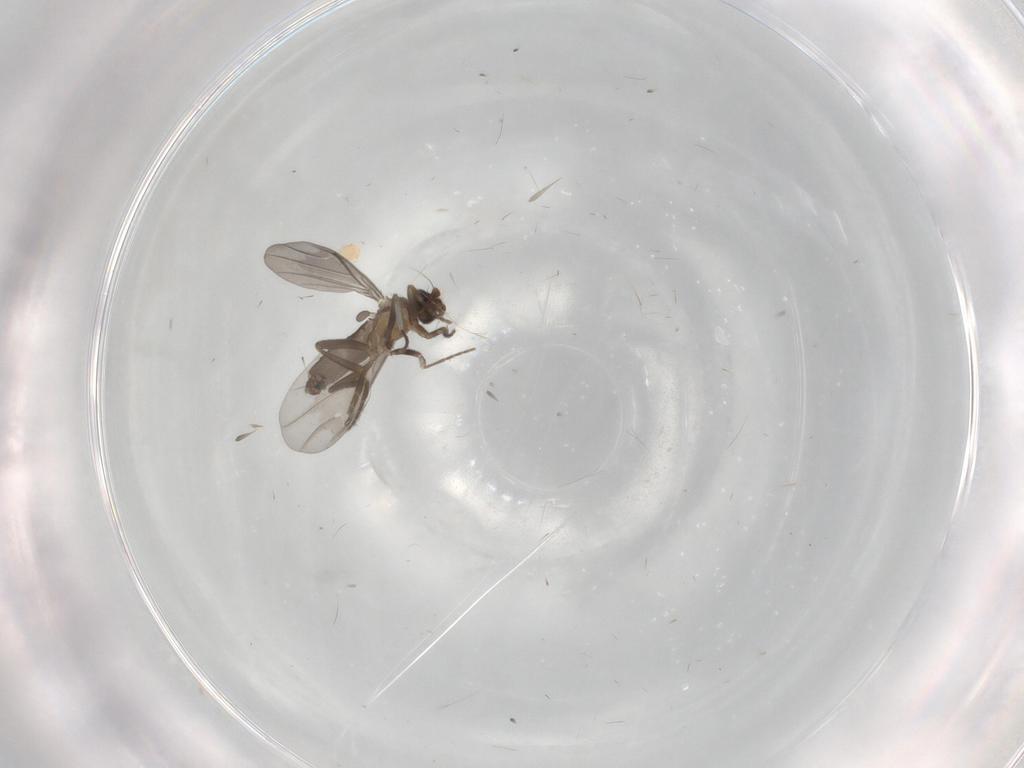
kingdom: Animalia
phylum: Arthropoda
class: Insecta
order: Diptera
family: Phoridae
